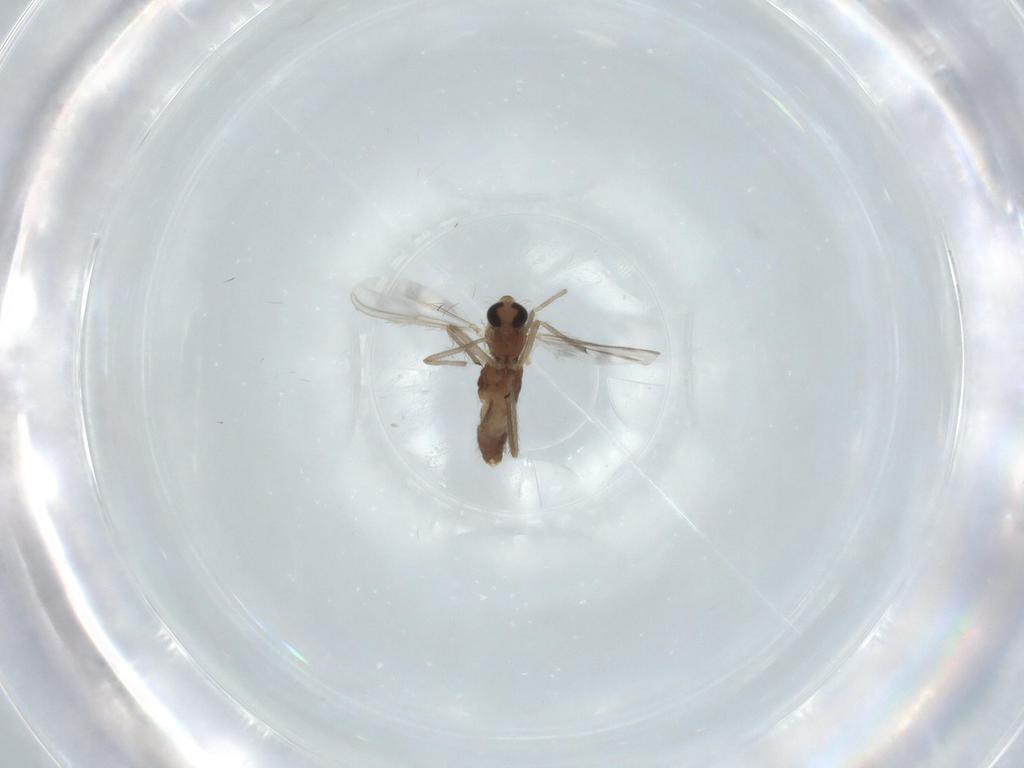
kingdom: Animalia
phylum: Arthropoda
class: Insecta
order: Diptera
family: Chironomidae
